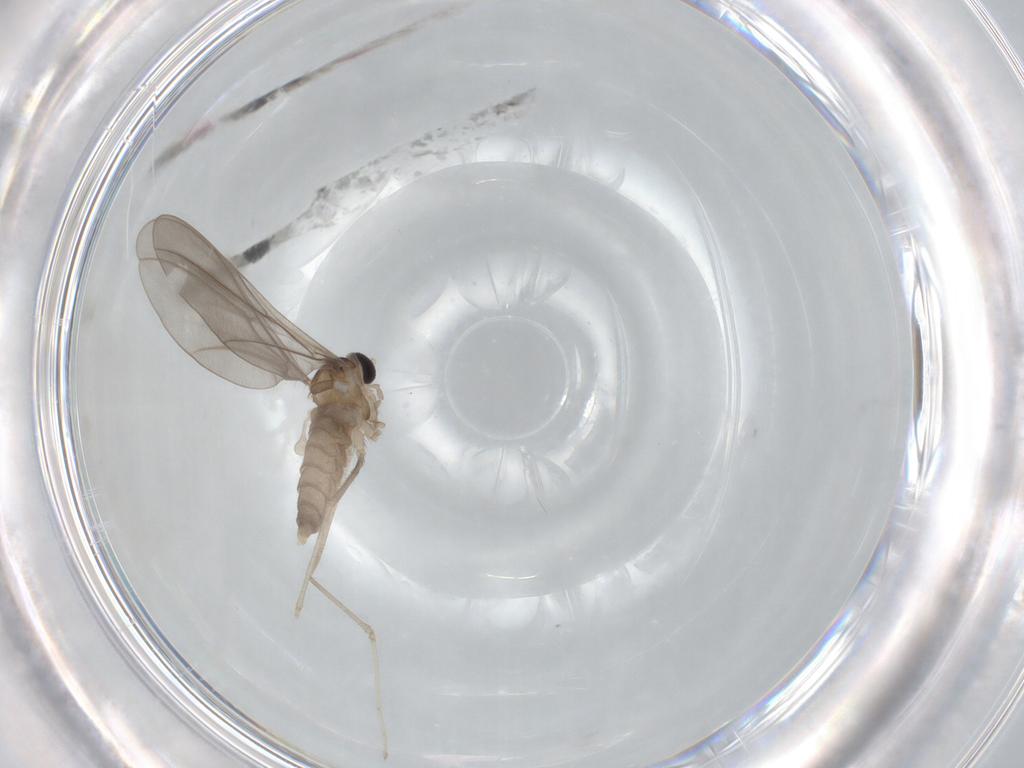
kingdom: Animalia
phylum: Arthropoda
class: Insecta
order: Diptera
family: Cecidomyiidae
